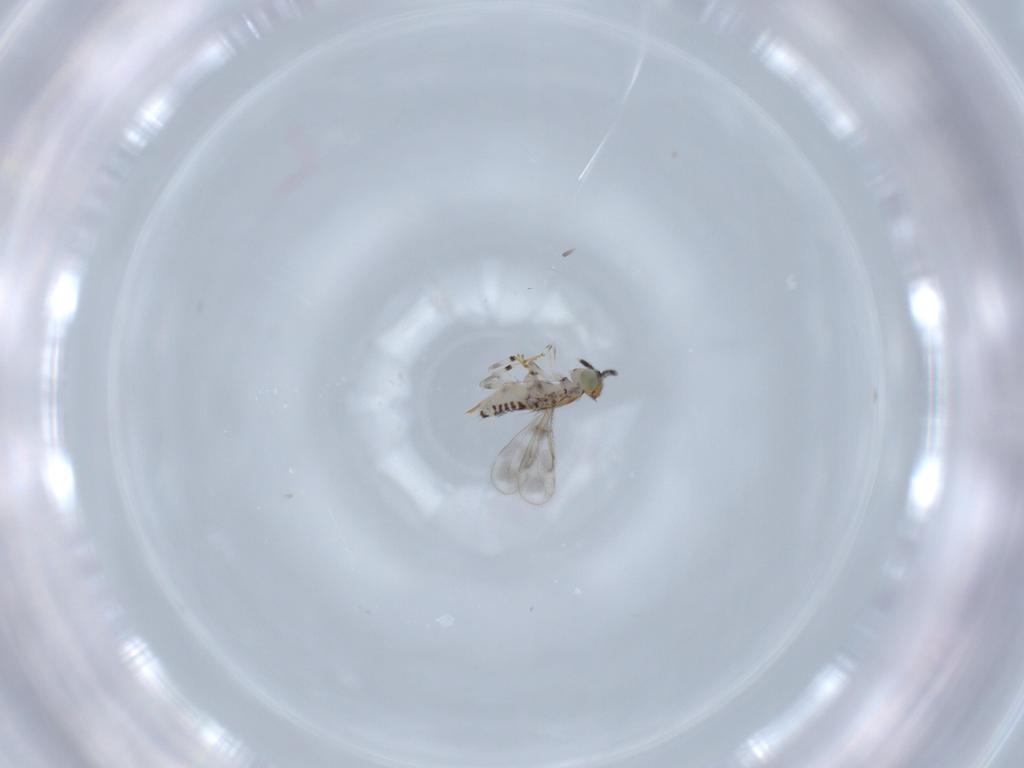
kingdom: Animalia
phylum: Arthropoda
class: Insecta
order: Hymenoptera
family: Aphelinidae
